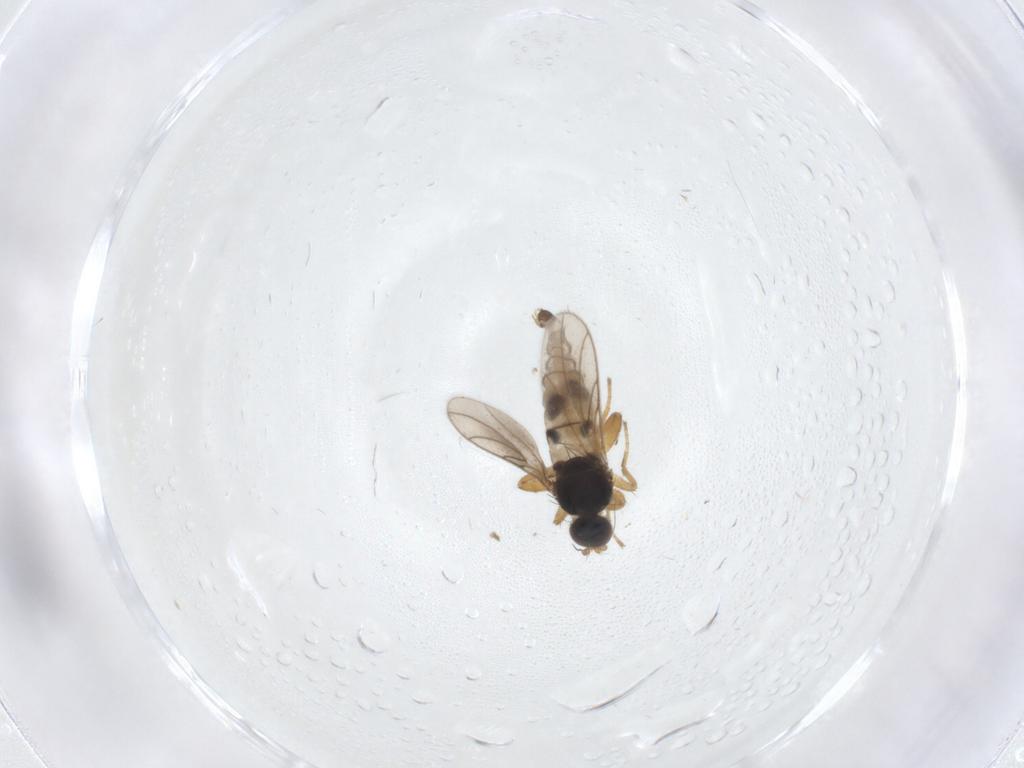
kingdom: Animalia
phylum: Arthropoda
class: Insecta
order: Diptera
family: Hybotidae
